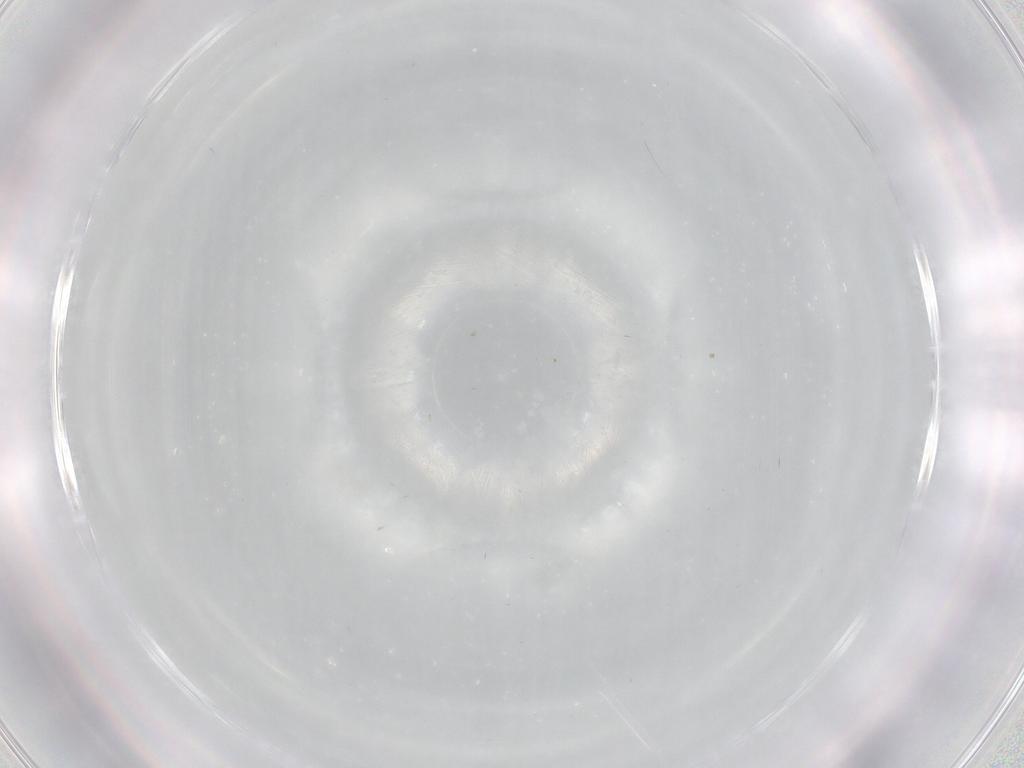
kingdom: Animalia
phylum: Arthropoda
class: Insecta
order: Diptera
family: Cecidomyiidae
